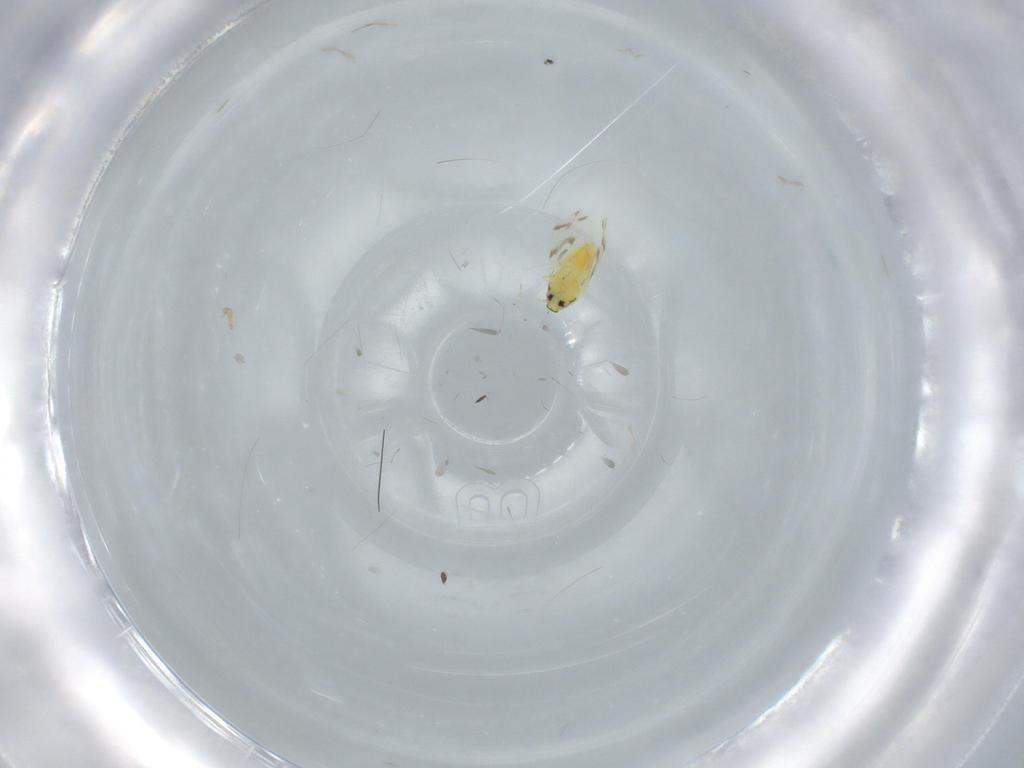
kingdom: Animalia
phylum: Arthropoda
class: Insecta
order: Hemiptera
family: Aleyrodidae
